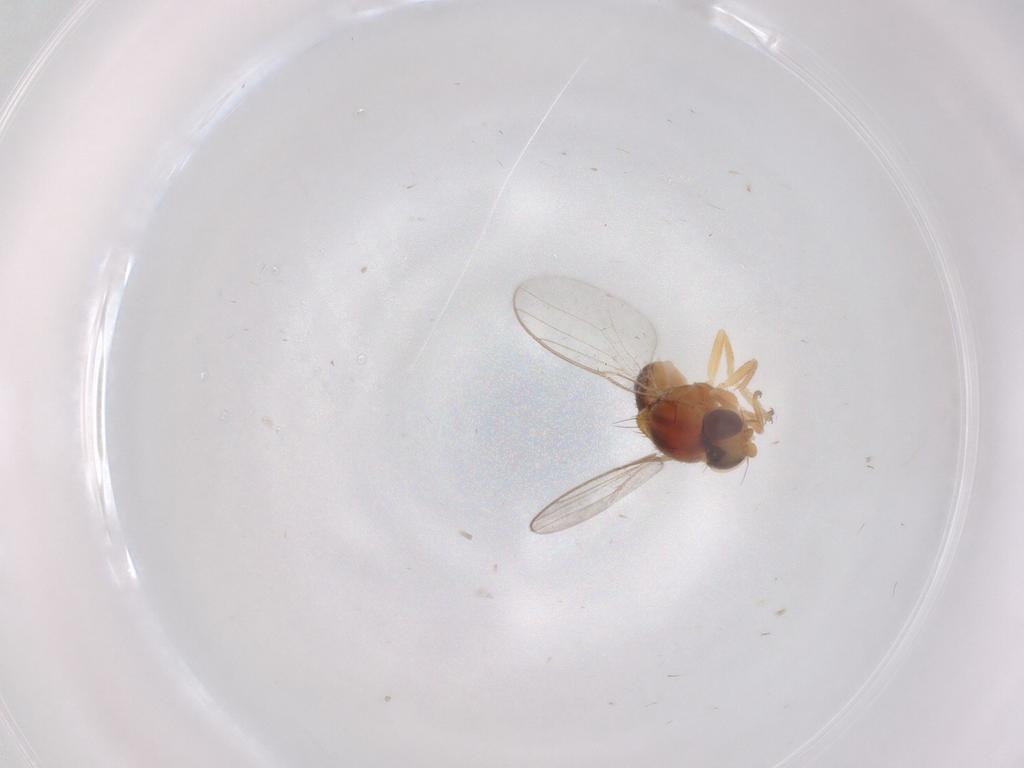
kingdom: Animalia
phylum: Arthropoda
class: Insecta
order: Diptera
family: Chloropidae
